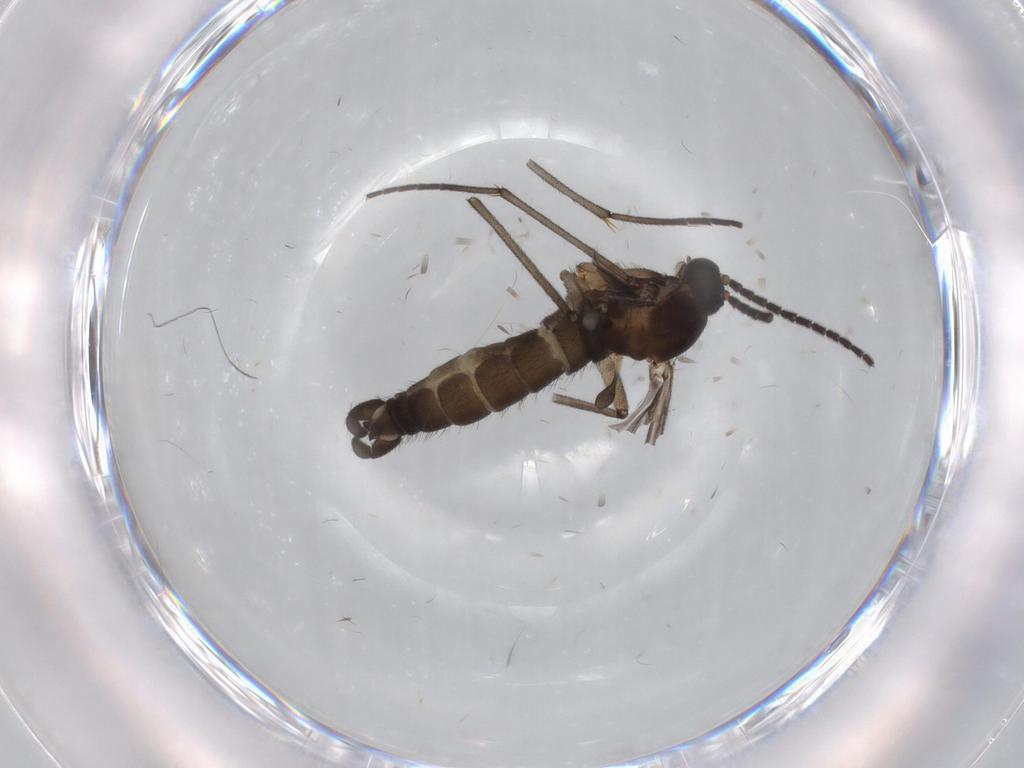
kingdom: Animalia
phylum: Arthropoda
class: Insecta
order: Diptera
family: Sciaridae
